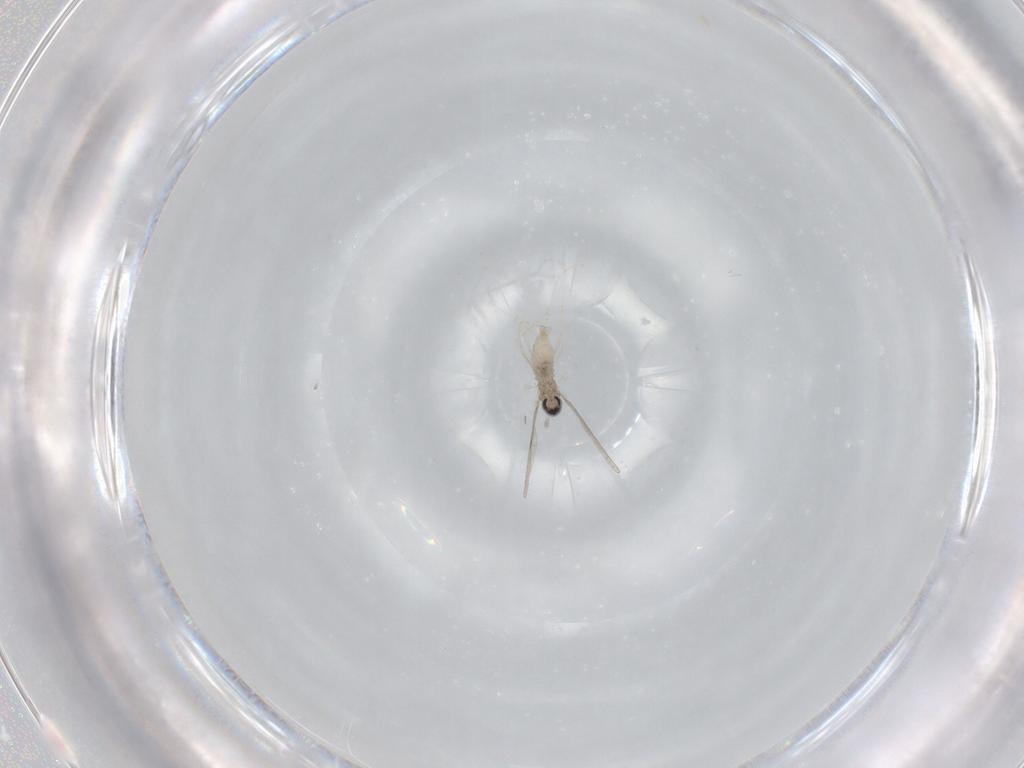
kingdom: Animalia
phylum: Arthropoda
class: Insecta
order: Diptera
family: Cecidomyiidae
